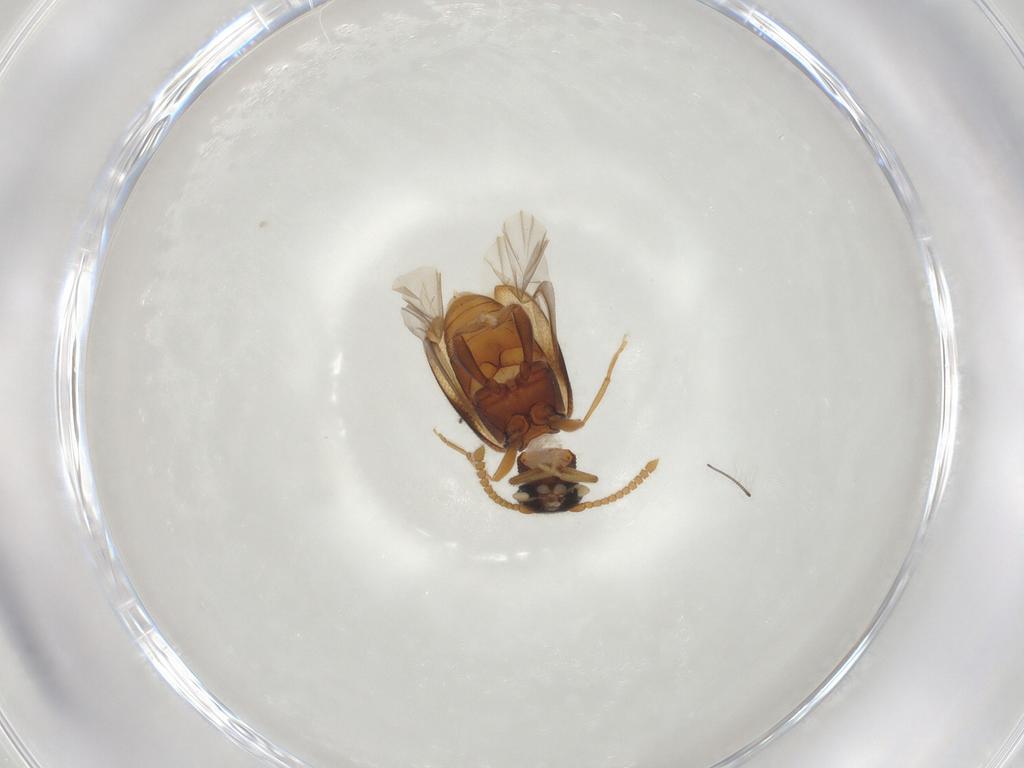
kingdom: Animalia
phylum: Arthropoda
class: Insecta
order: Coleoptera
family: Aderidae
